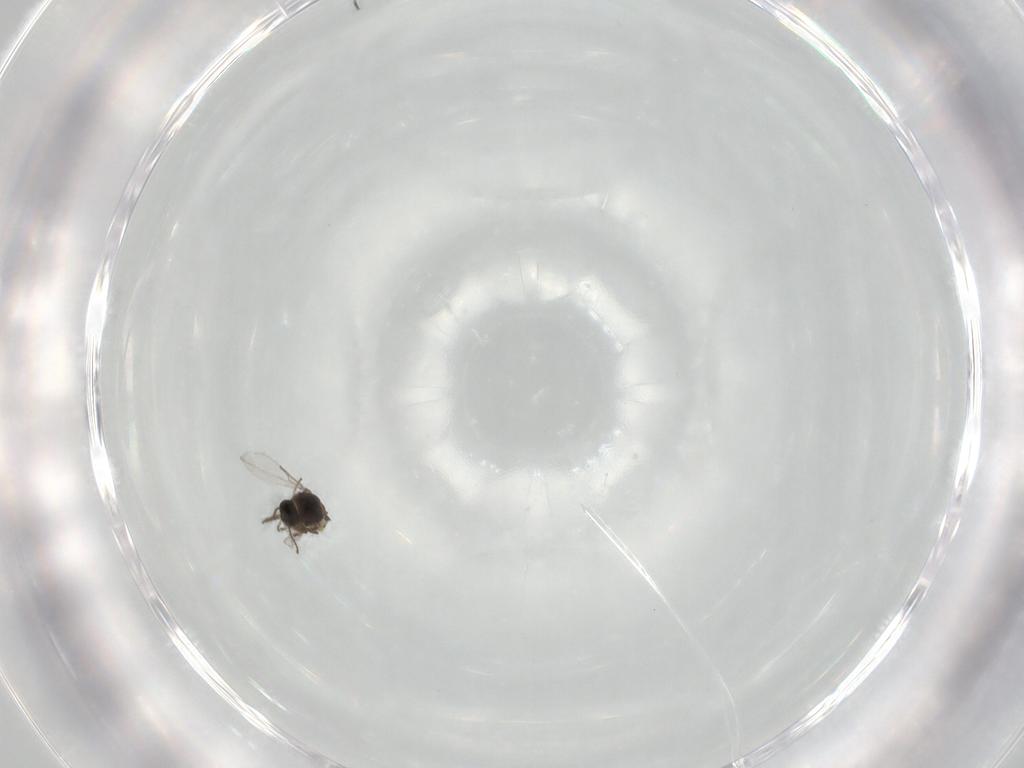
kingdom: Animalia
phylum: Arthropoda
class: Insecta
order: Diptera
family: Ceratopogonidae
